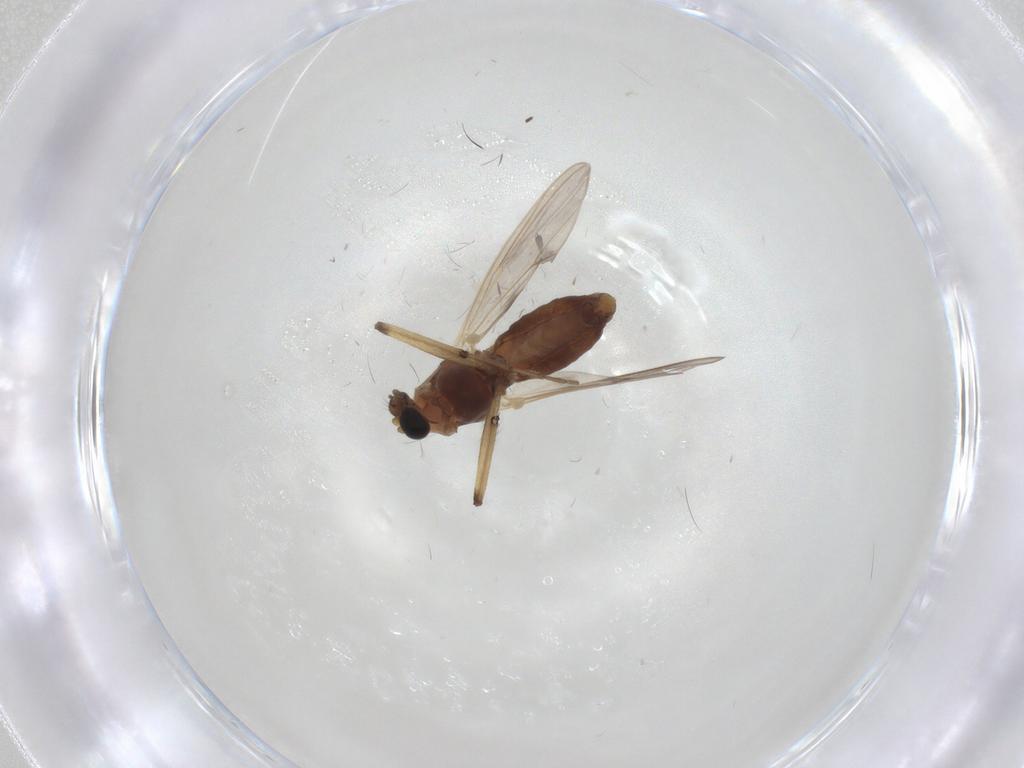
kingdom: Animalia
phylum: Arthropoda
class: Insecta
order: Diptera
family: Chironomidae
